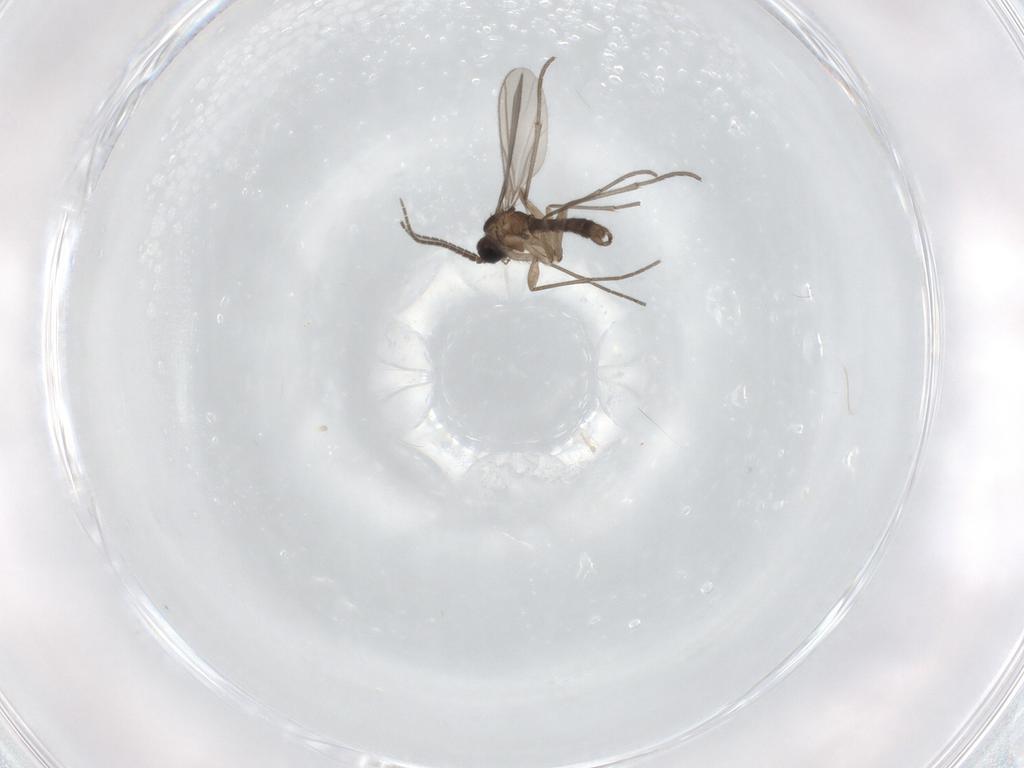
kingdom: Animalia
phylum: Arthropoda
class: Insecta
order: Diptera
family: Sciaridae
